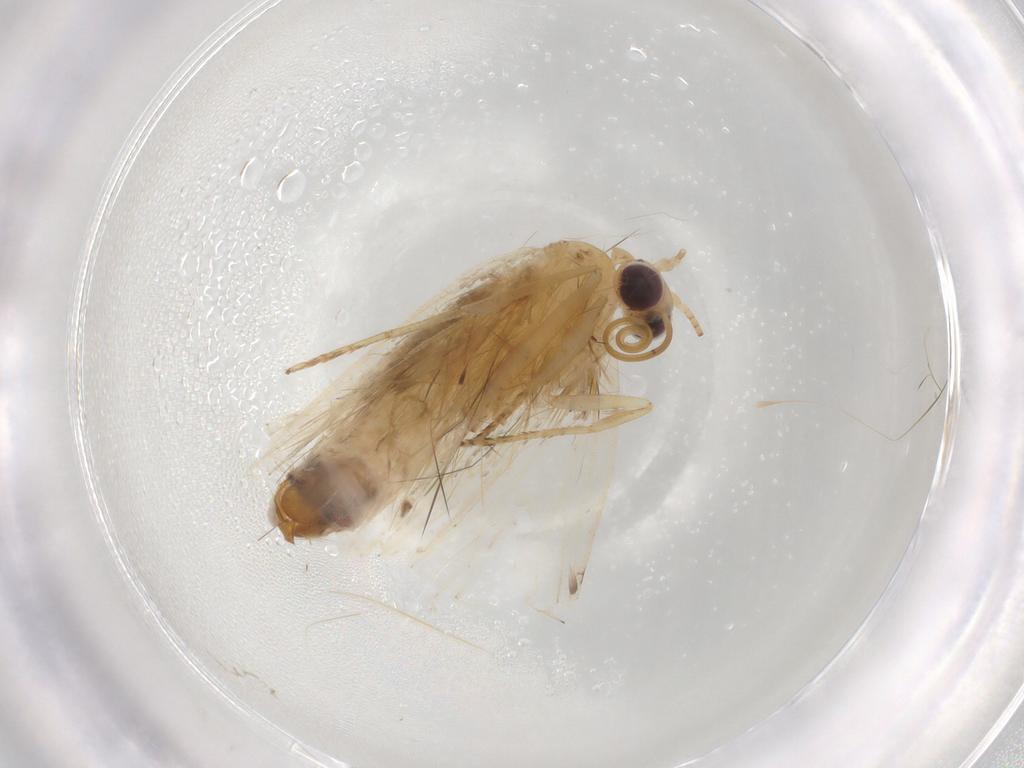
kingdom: Animalia
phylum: Arthropoda
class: Insecta
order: Lepidoptera
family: Erebidae
